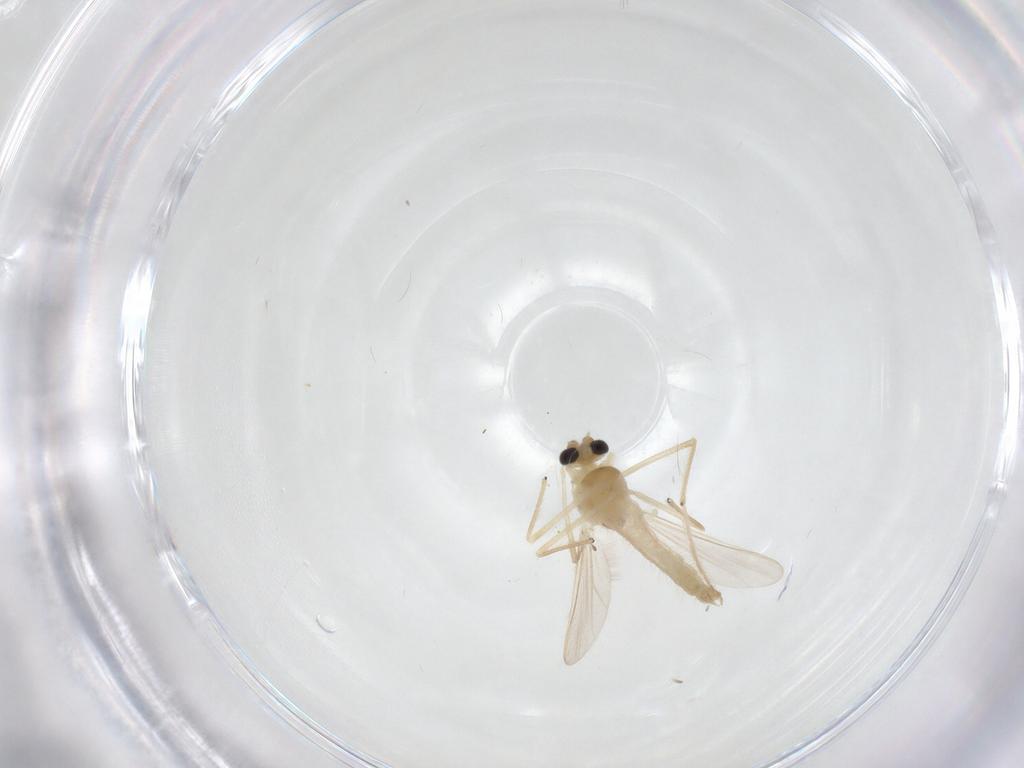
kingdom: Animalia
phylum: Arthropoda
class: Insecta
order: Diptera
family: Chironomidae
